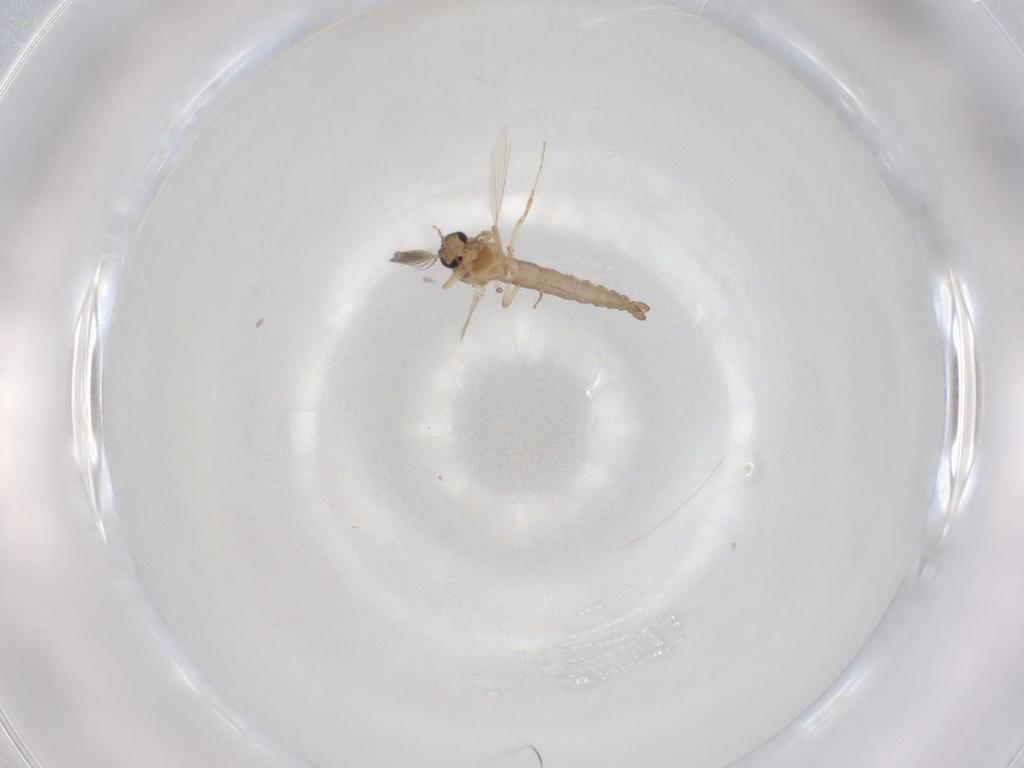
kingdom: Animalia
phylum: Arthropoda
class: Insecta
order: Diptera
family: Ceratopogonidae
